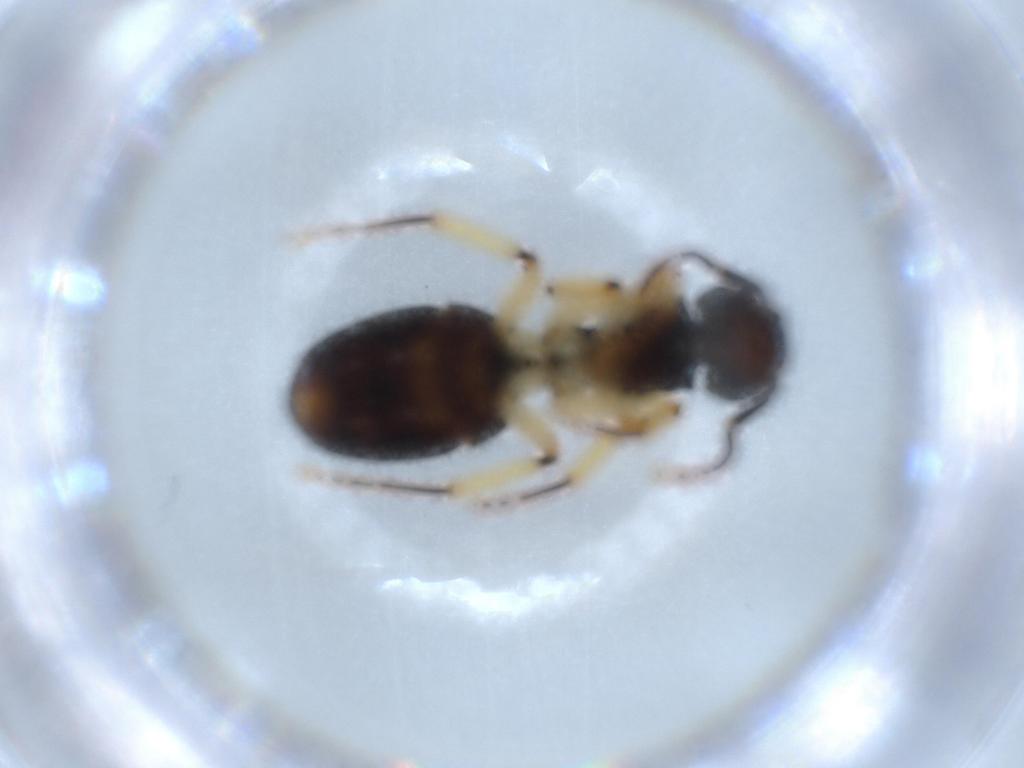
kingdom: Animalia
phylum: Arthropoda
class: Insecta
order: Hymenoptera
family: Formicidae
